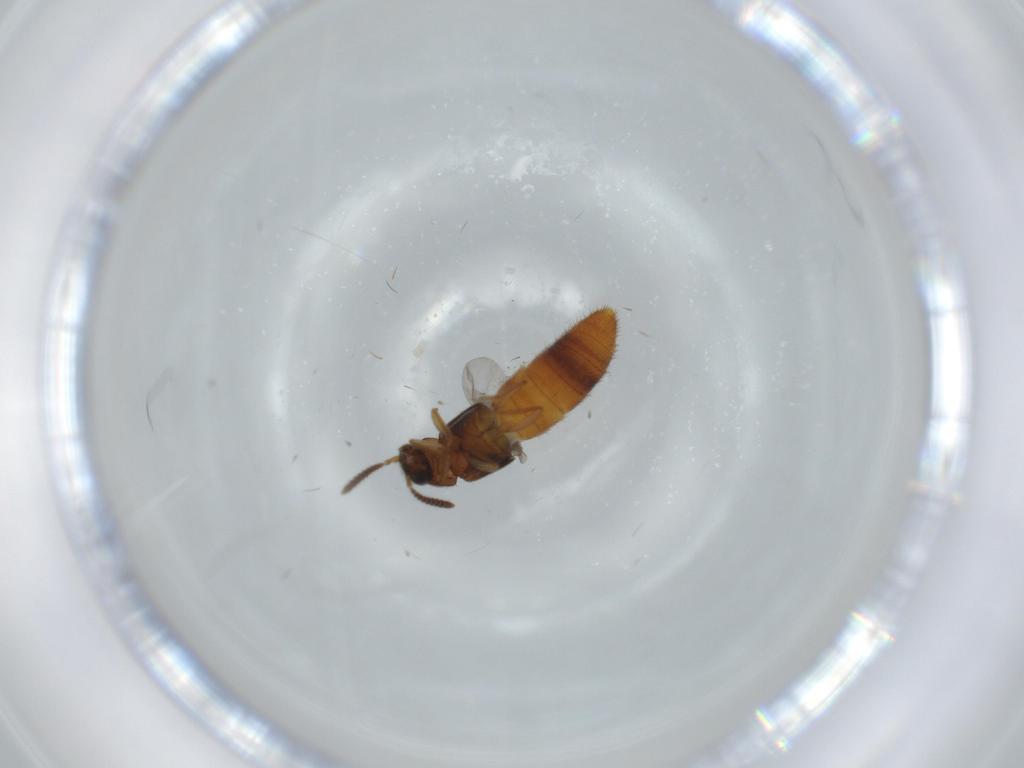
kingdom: Animalia
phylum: Arthropoda
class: Insecta
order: Coleoptera
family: Staphylinidae
